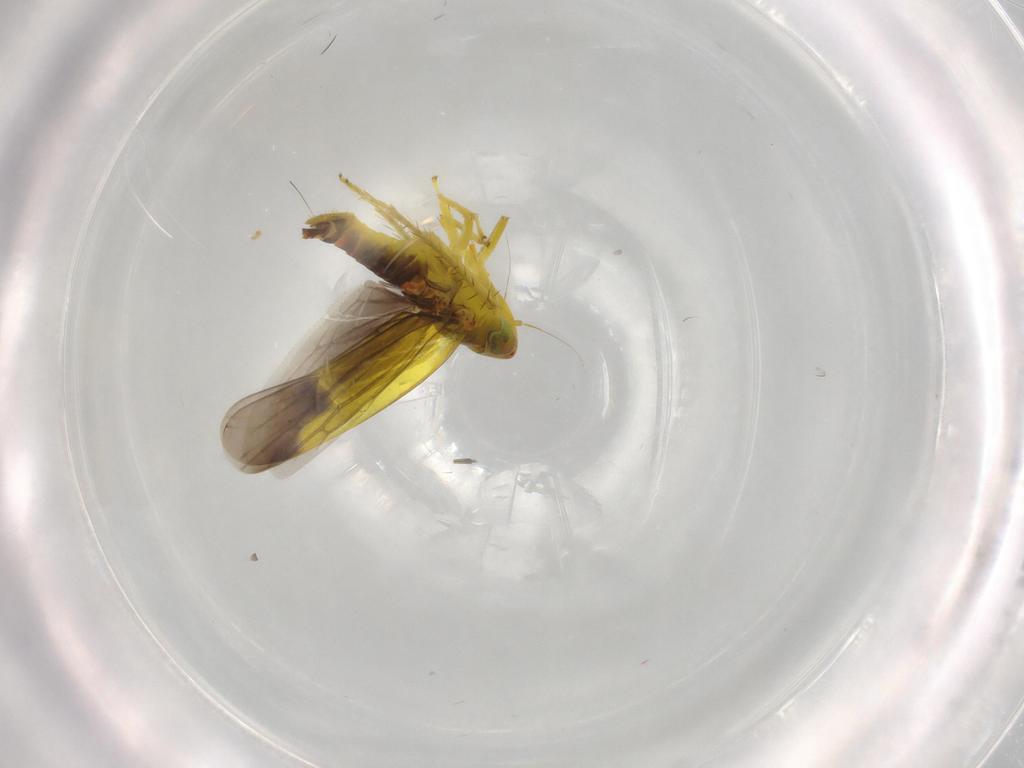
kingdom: Animalia
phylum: Arthropoda
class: Insecta
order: Hemiptera
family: Cicadellidae
